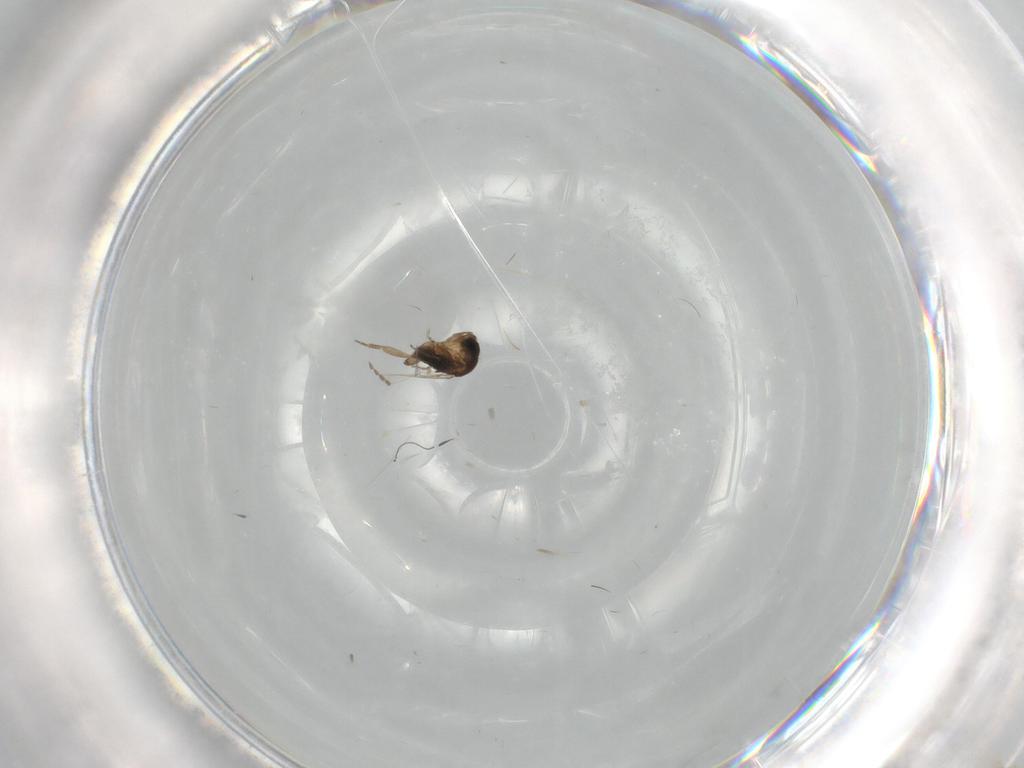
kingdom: Animalia
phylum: Arthropoda
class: Insecta
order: Diptera
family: Phoridae
